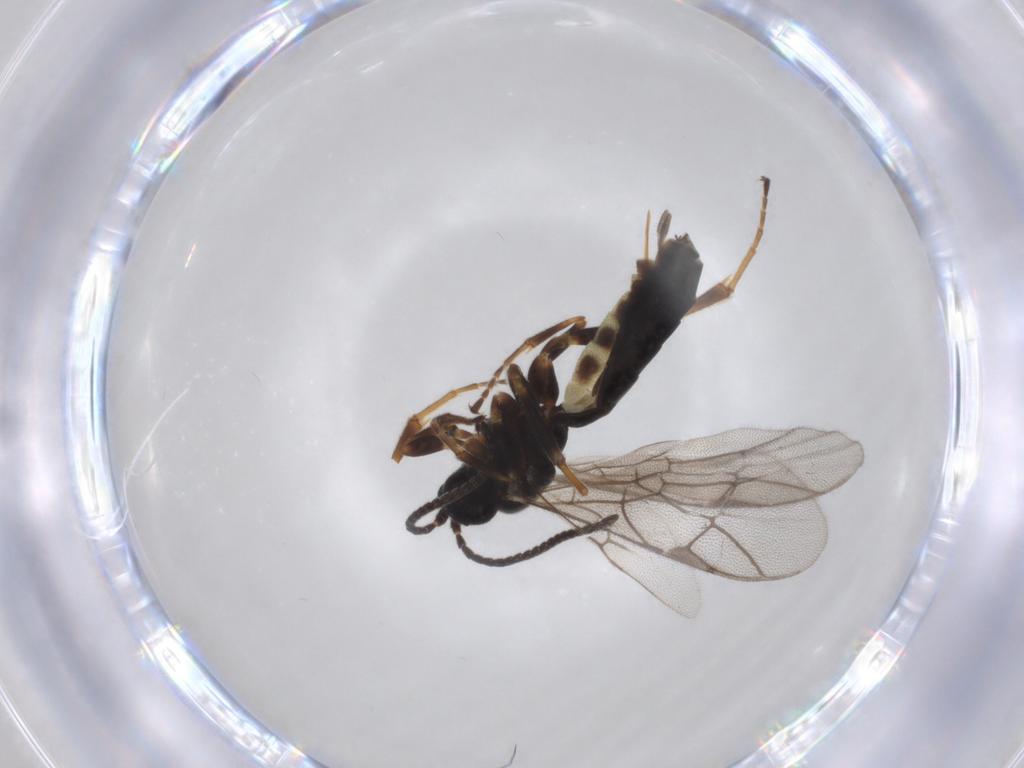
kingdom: Animalia
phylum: Arthropoda
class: Insecta
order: Hymenoptera
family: Ichneumonidae
